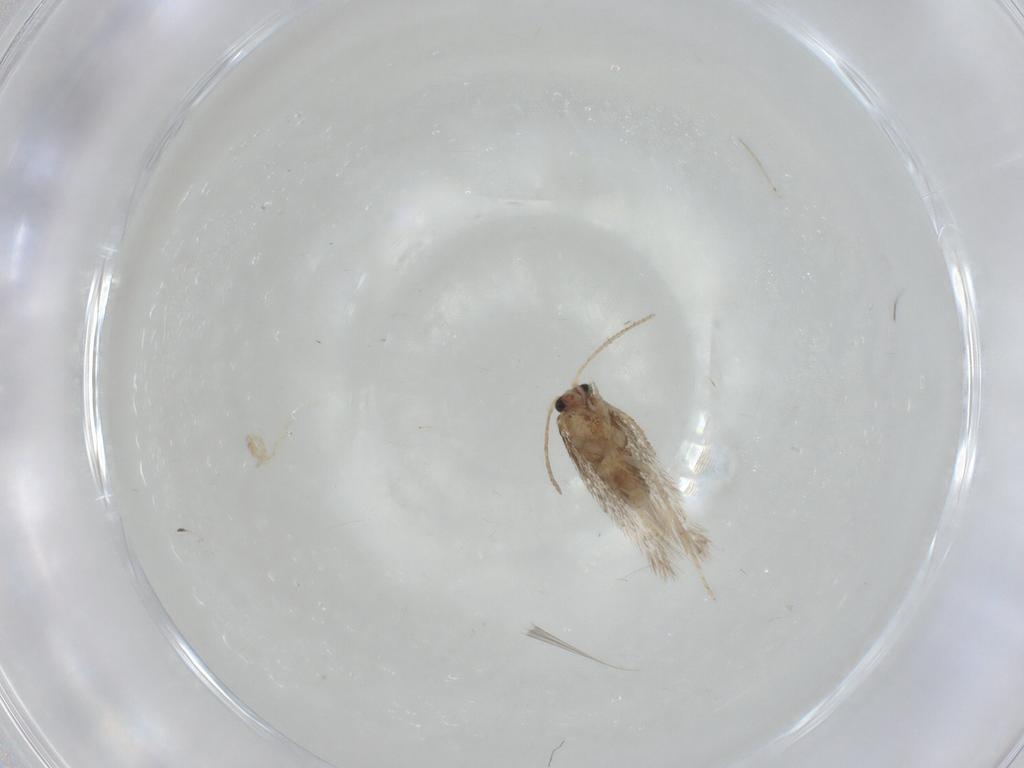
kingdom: Animalia
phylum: Arthropoda
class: Insecta
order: Lepidoptera
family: Nepticulidae
